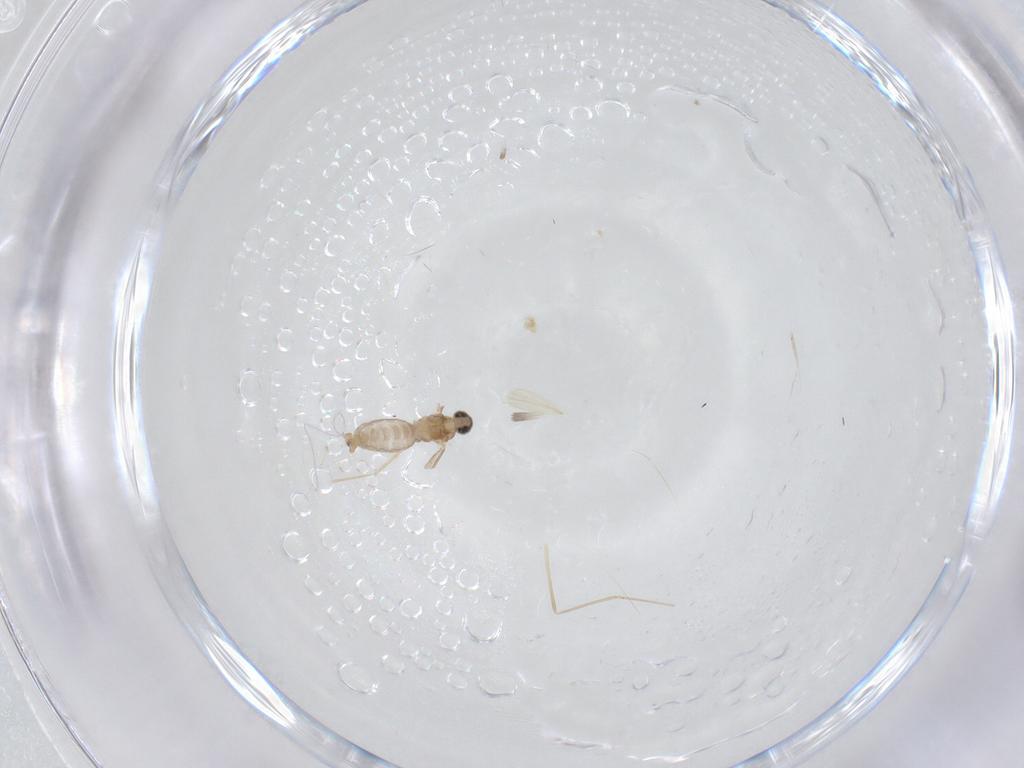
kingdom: Animalia
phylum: Arthropoda
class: Insecta
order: Diptera
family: Cecidomyiidae
